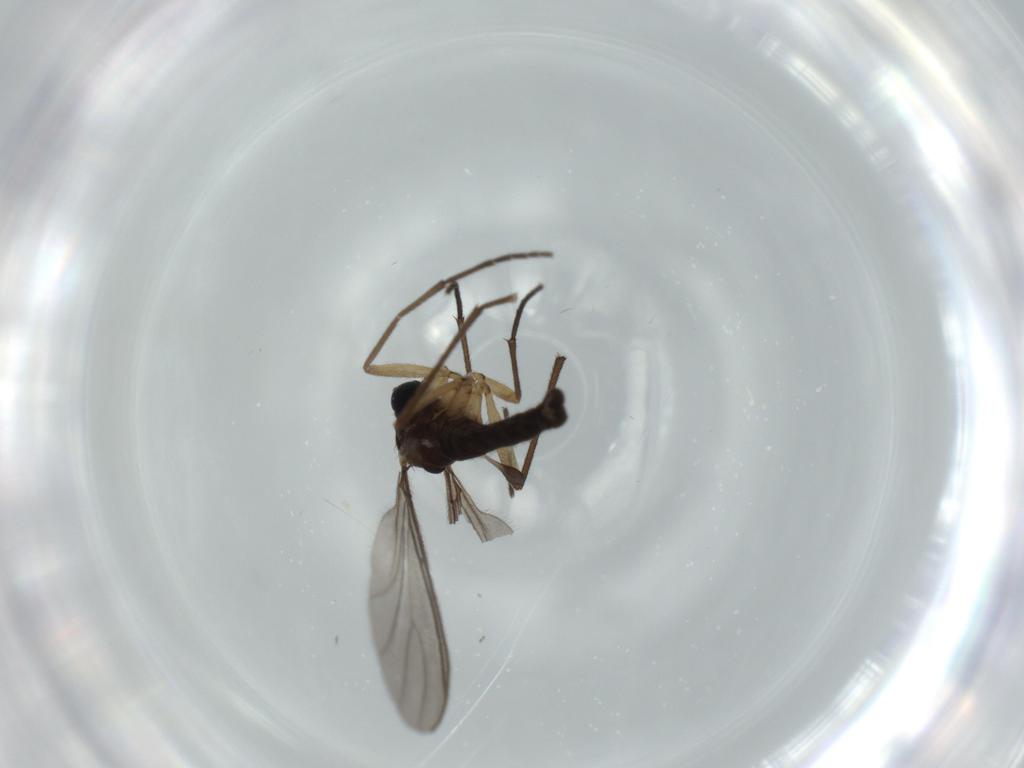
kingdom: Animalia
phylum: Arthropoda
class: Insecta
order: Diptera
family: Sciaridae
